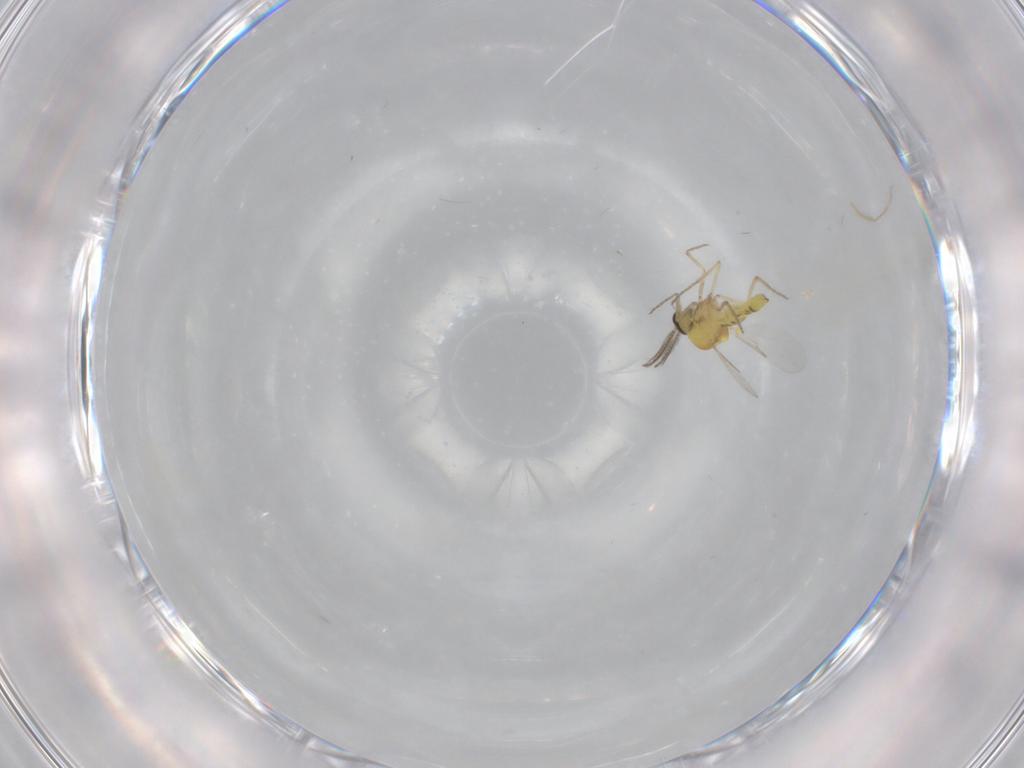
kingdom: Animalia
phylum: Arthropoda
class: Insecta
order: Diptera
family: Ceratopogonidae
